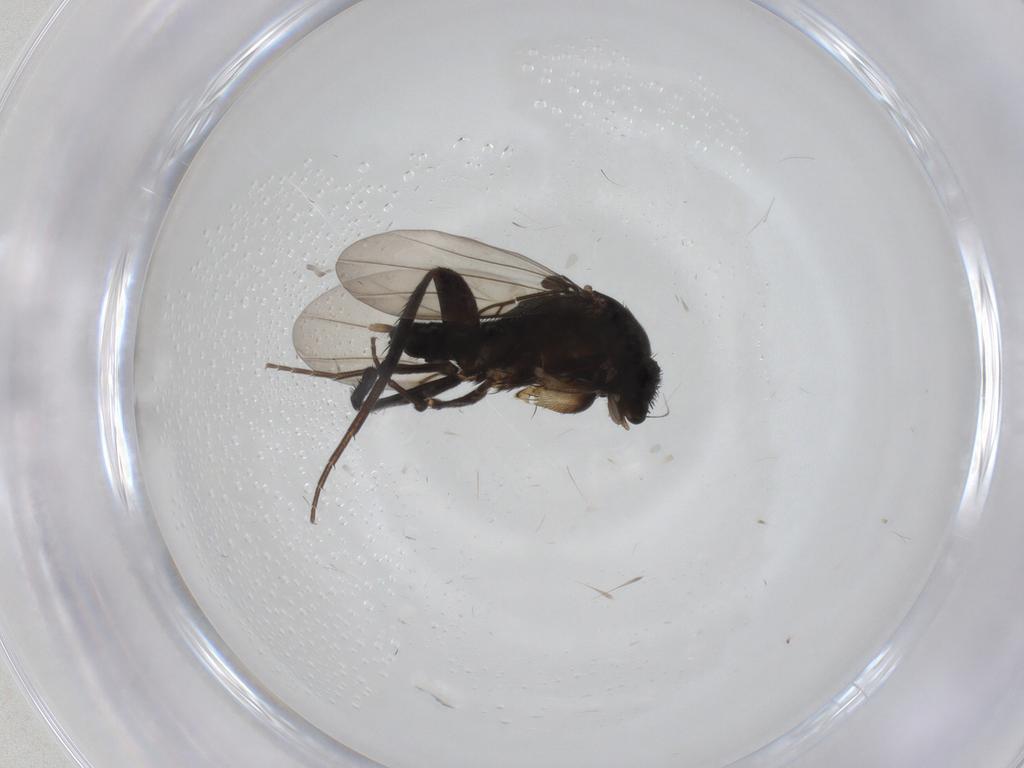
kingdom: Animalia
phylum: Arthropoda
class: Insecta
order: Diptera
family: Phoridae
